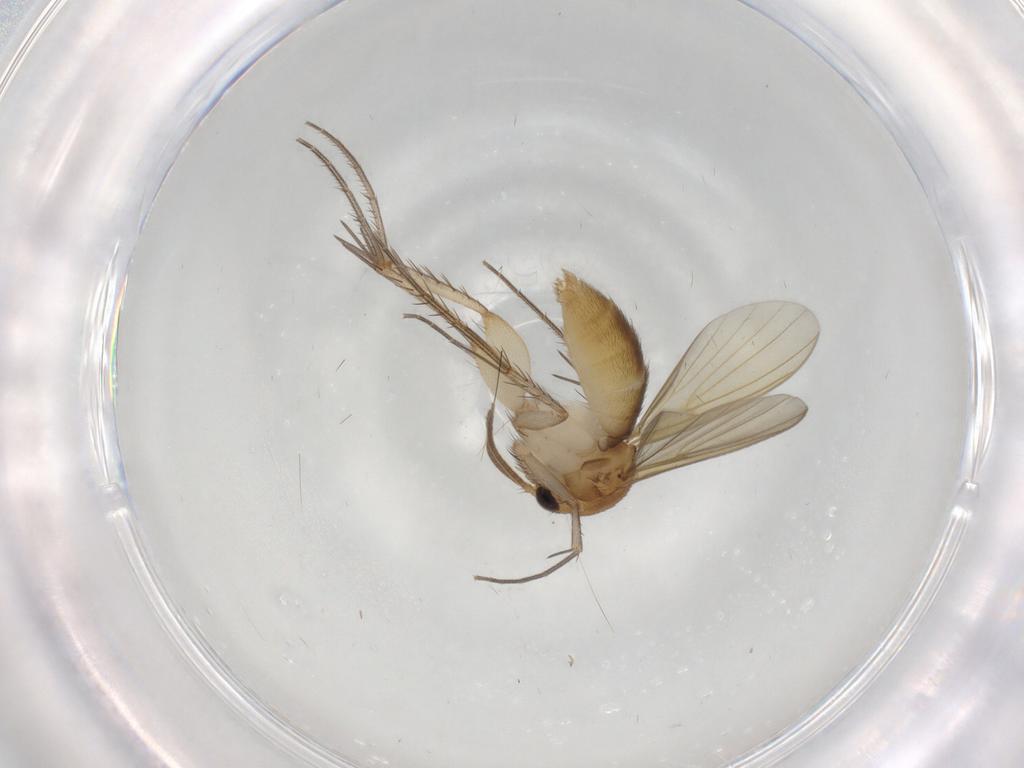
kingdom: Animalia
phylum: Arthropoda
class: Insecta
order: Diptera
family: Mycetophilidae
